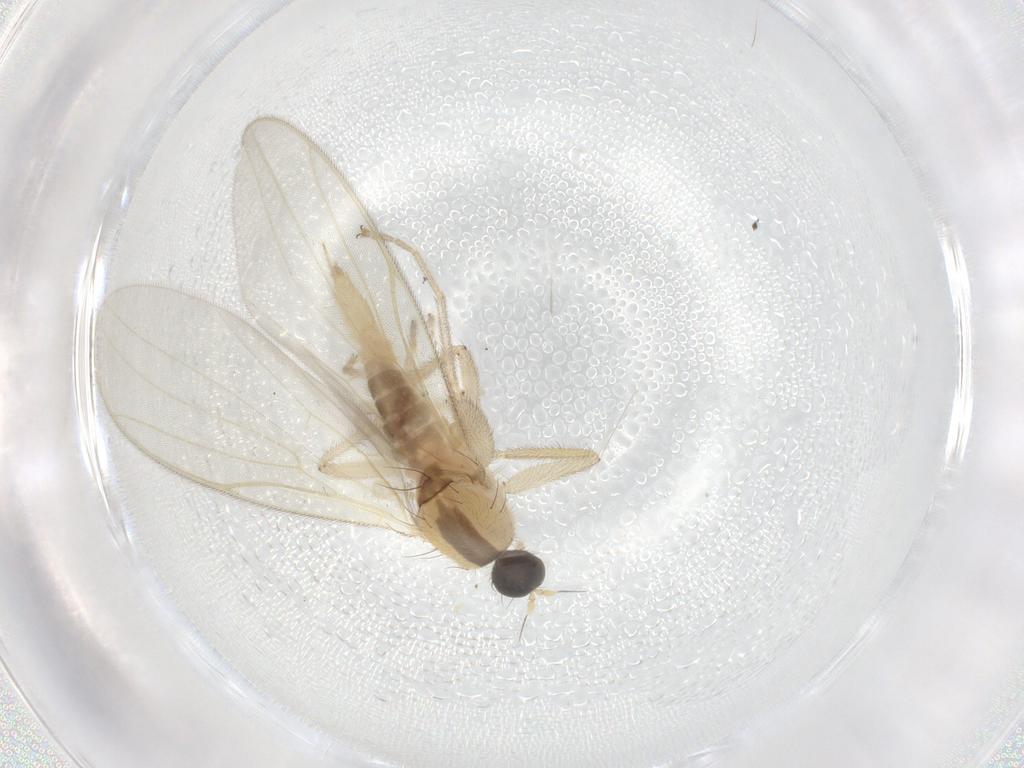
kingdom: Animalia
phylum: Arthropoda
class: Insecta
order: Diptera
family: Hybotidae
